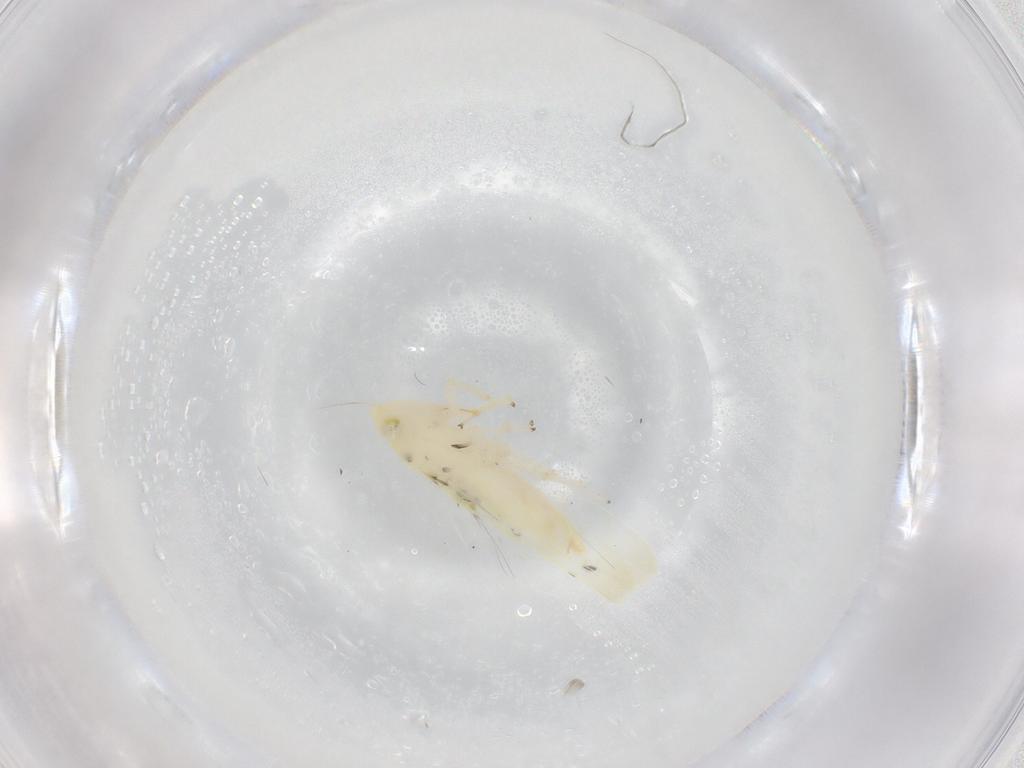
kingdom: Animalia
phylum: Arthropoda
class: Insecta
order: Hemiptera
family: Cicadellidae
